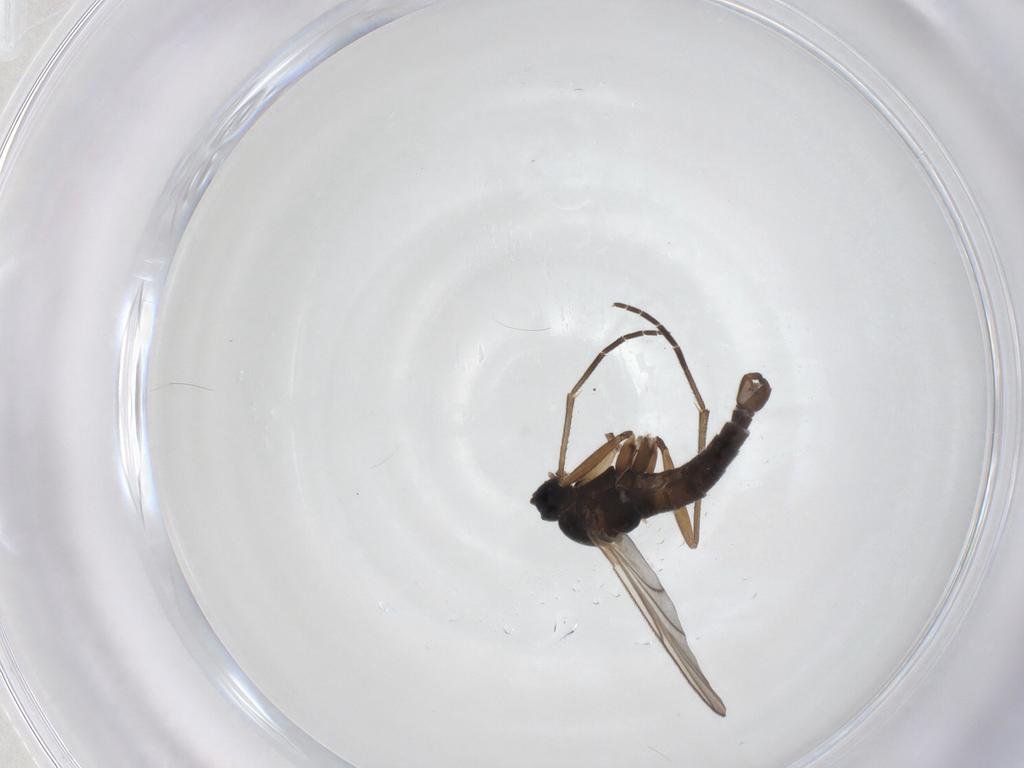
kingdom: Animalia
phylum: Arthropoda
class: Insecta
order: Diptera
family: Sciaridae
